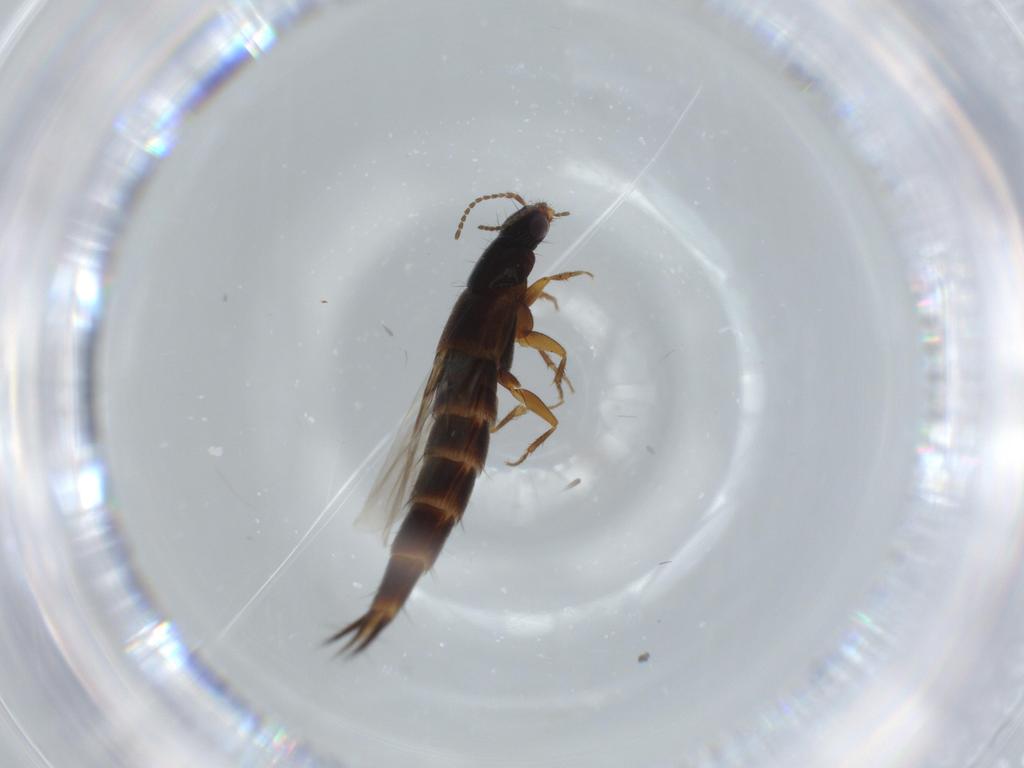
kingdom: Animalia
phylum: Arthropoda
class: Insecta
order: Coleoptera
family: Erotylidae
